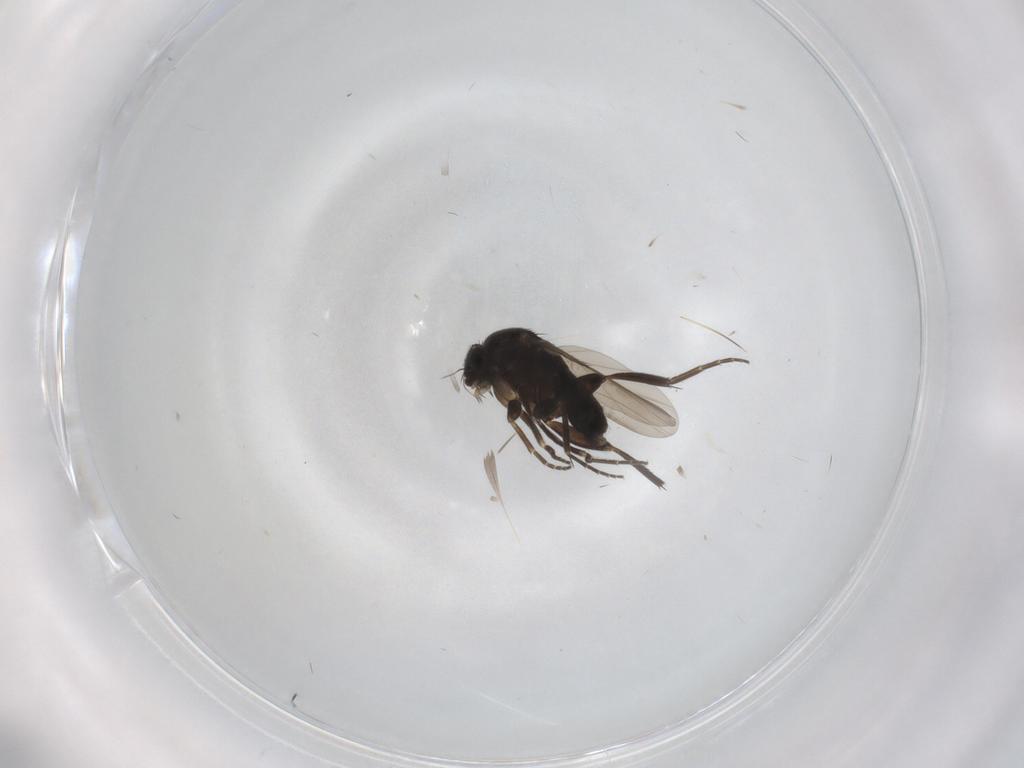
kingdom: Animalia
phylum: Arthropoda
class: Insecta
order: Diptera
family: Phoridae
